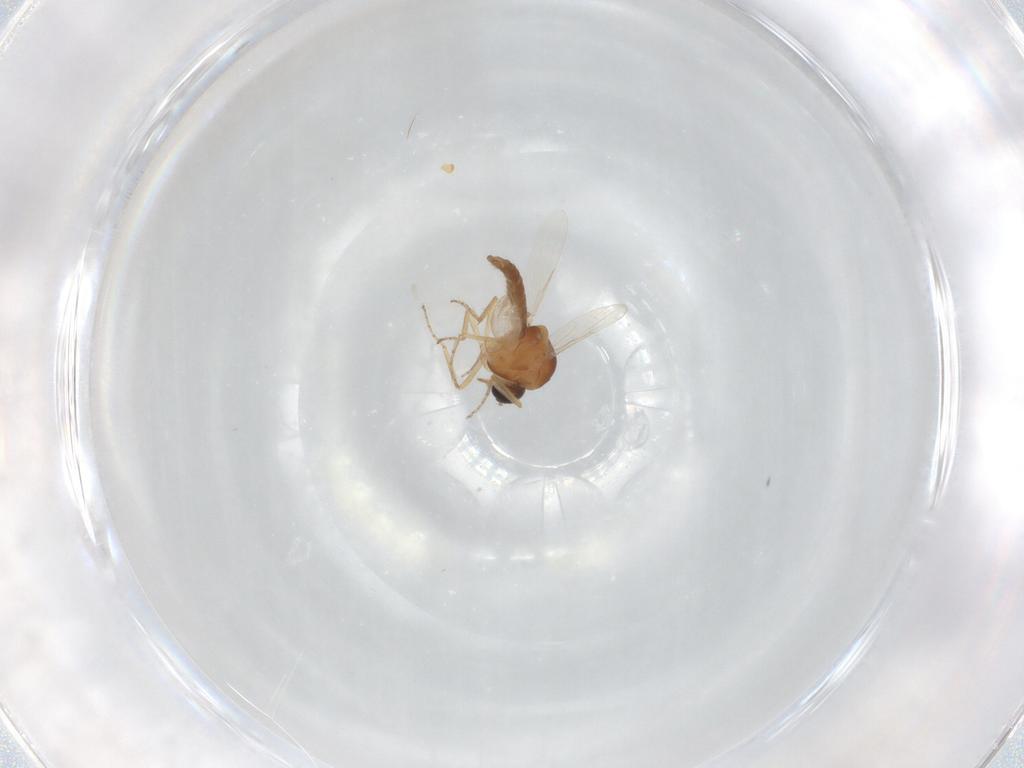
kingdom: Animalia
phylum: Arthropoda
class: Insecta
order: Diptera
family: Ceratopogonidae
